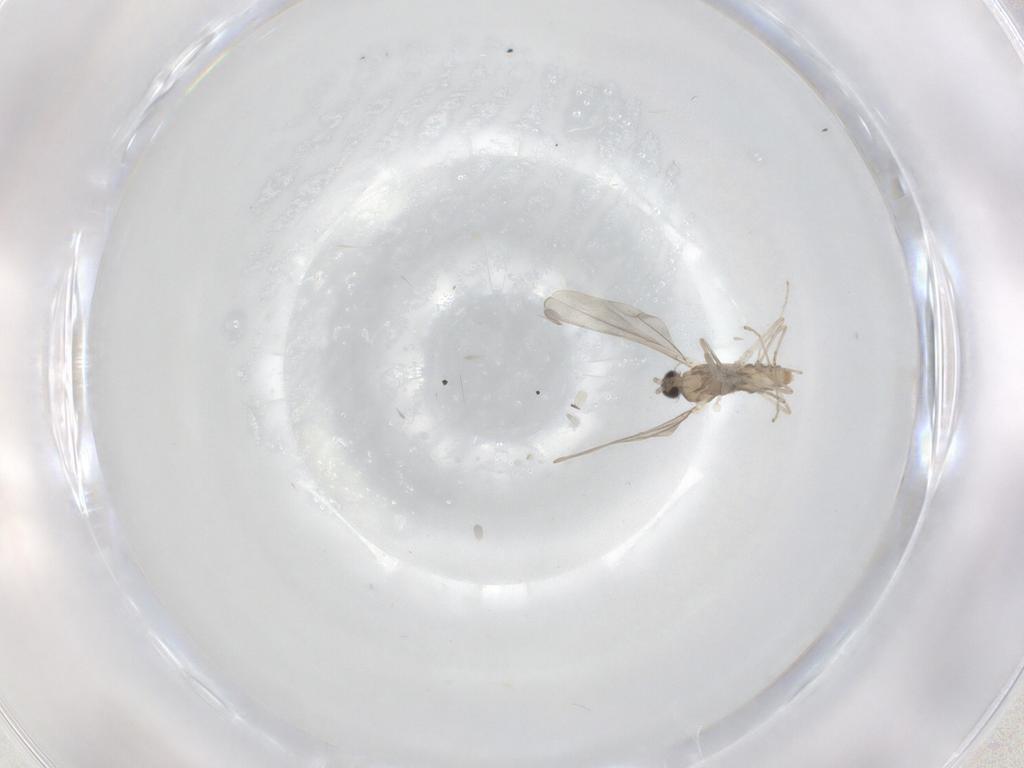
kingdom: Animalia
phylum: Arthropoda
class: Insecta
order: Diptera
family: Cecidomyiidae
